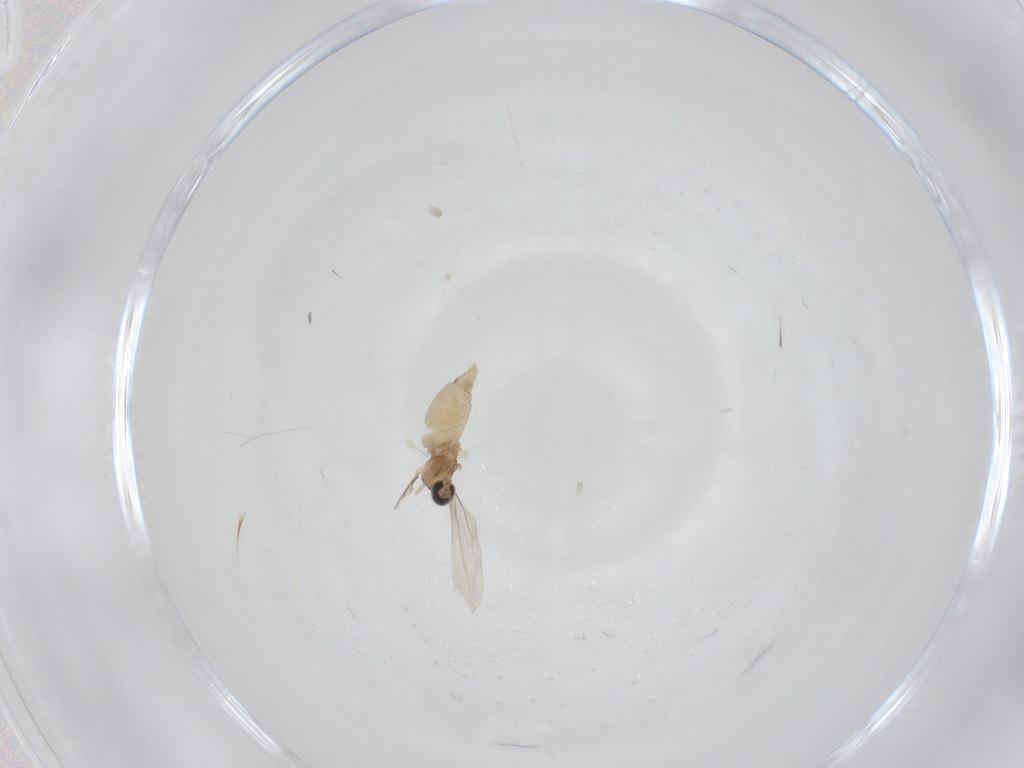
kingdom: Animalia
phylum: Arthropoda
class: Insecta
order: Diptera
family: Cecidomyiidae
